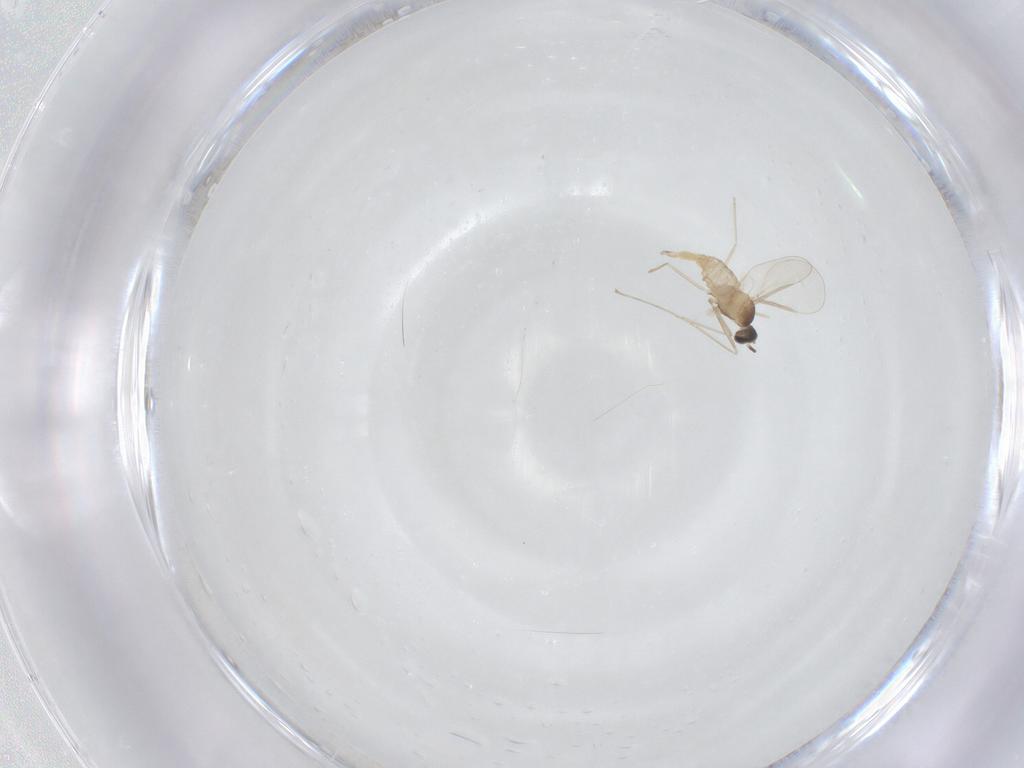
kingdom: Animalia
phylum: Arthropoda
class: Insecta
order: Diptera
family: Cecidomyiidae
